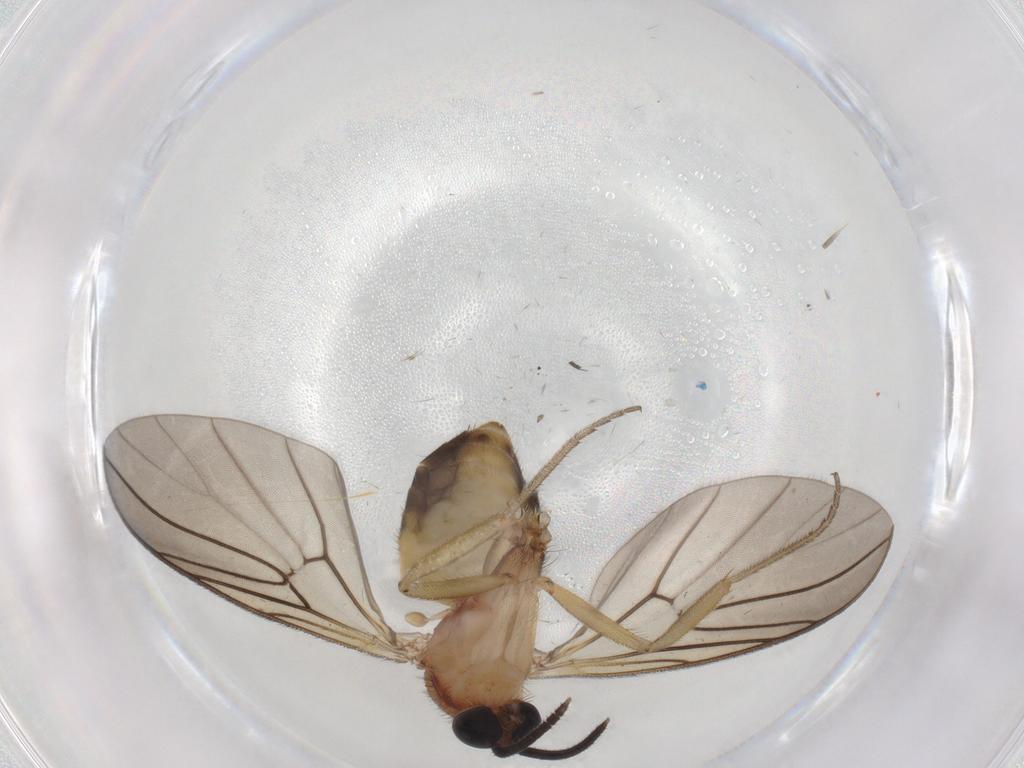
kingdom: Animalia
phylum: Arthropoda
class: Insecta
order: Diptera
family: Anisopodidae
